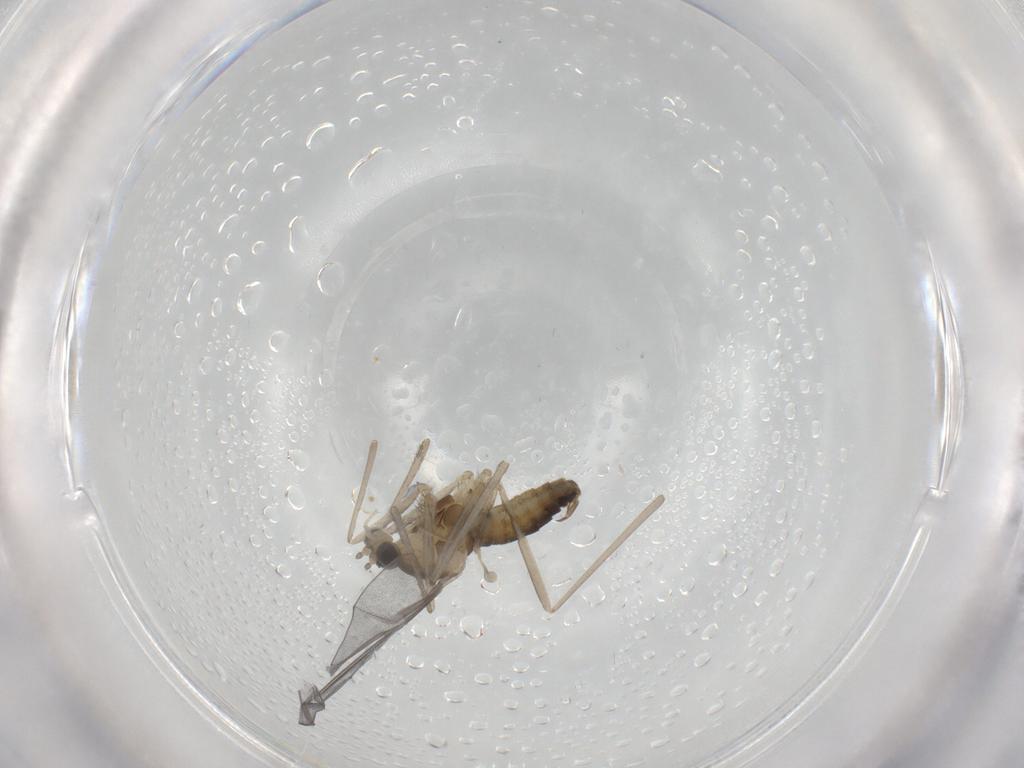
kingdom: Animalia
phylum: Arthropoda
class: Insecta
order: Diptera
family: Cecidomyiidae
